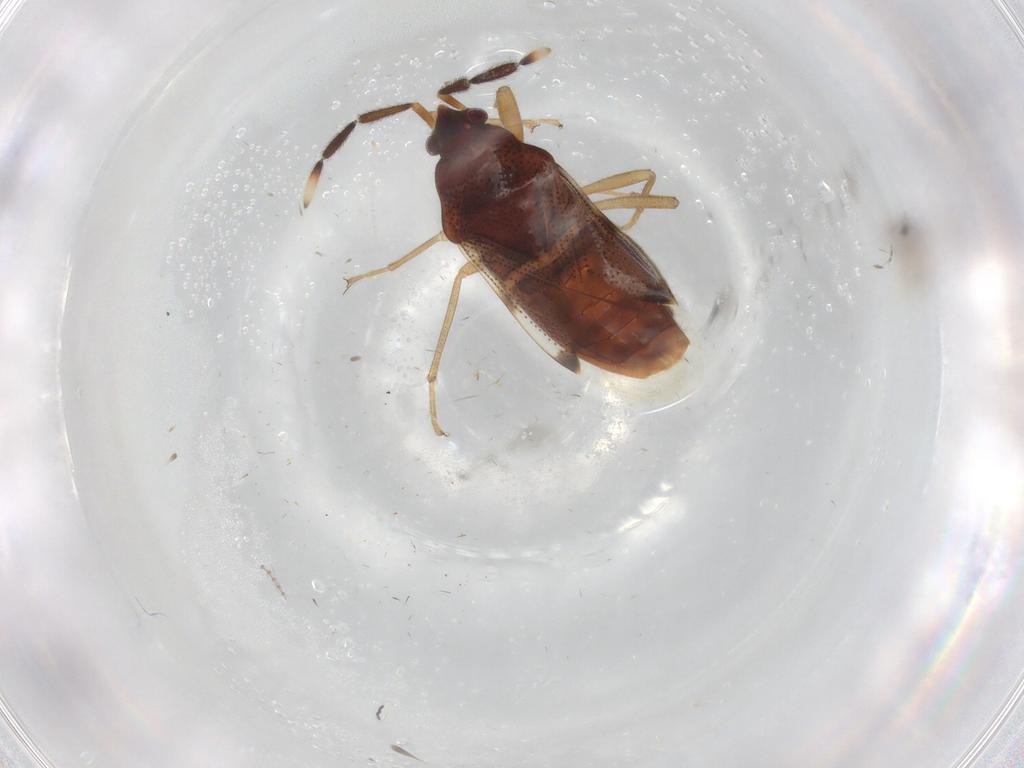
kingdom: Animalia
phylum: Arthropoda
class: Insecta
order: Hemiptera
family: Rhyparochromidae
